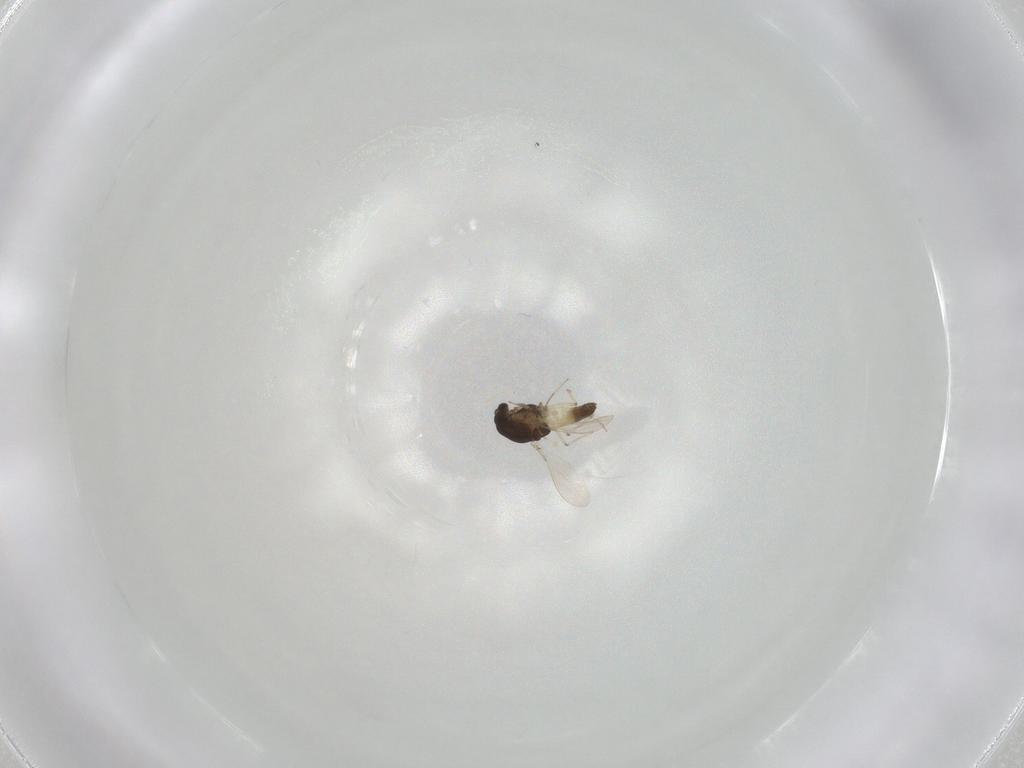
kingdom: Animalia
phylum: Arthropoda
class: Insecta
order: Diptera
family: Chironomidae
